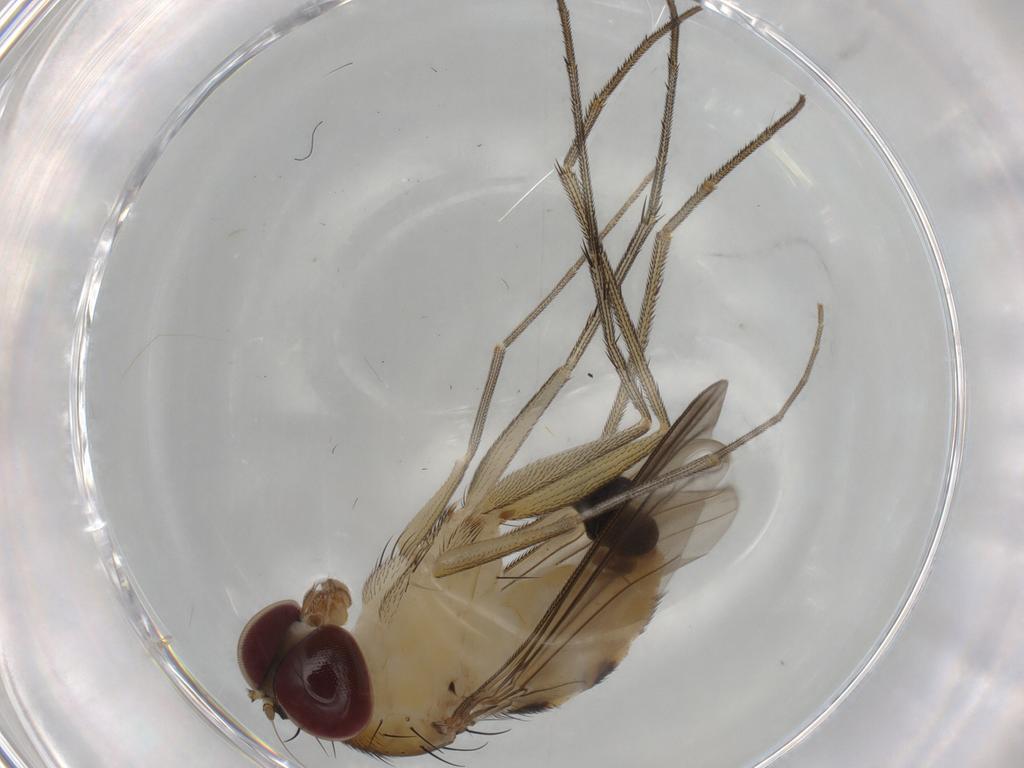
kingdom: Animalia
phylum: Arthropoda
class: Insecta
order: Diptera
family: Dolichopodidae
